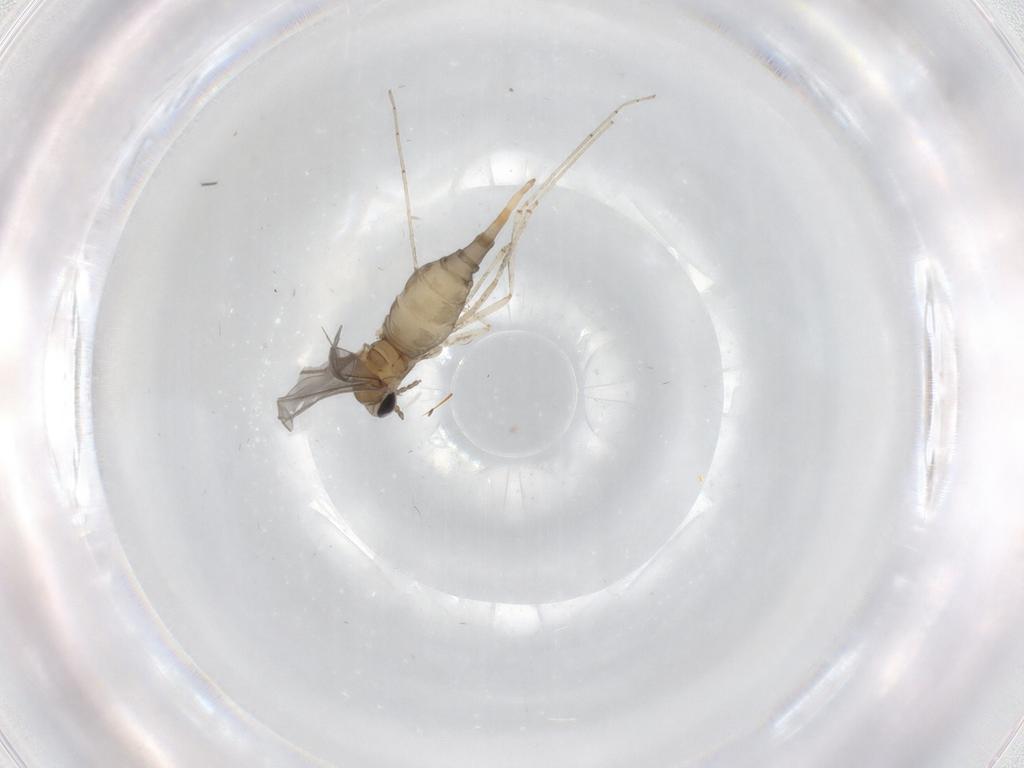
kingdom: Animalia
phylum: Arthropoda
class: Insecta
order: Diptera
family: Cecidomyiidae
